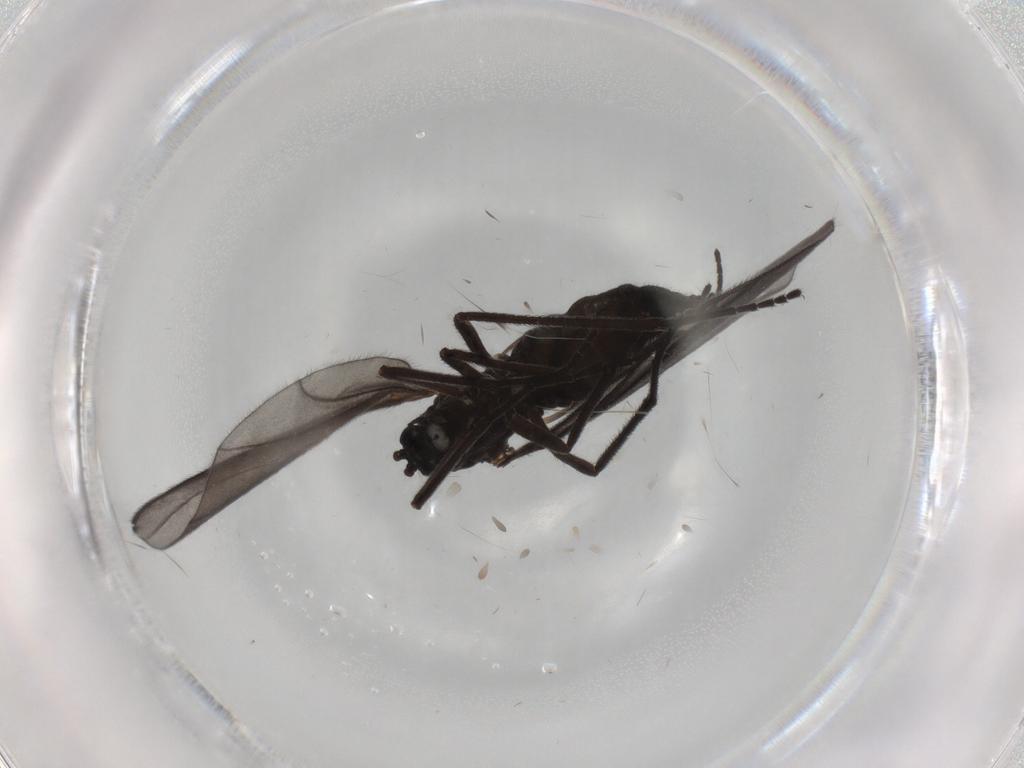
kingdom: Animalia
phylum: Arthropoda
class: Insecta
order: Diptera
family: Sciaridae
